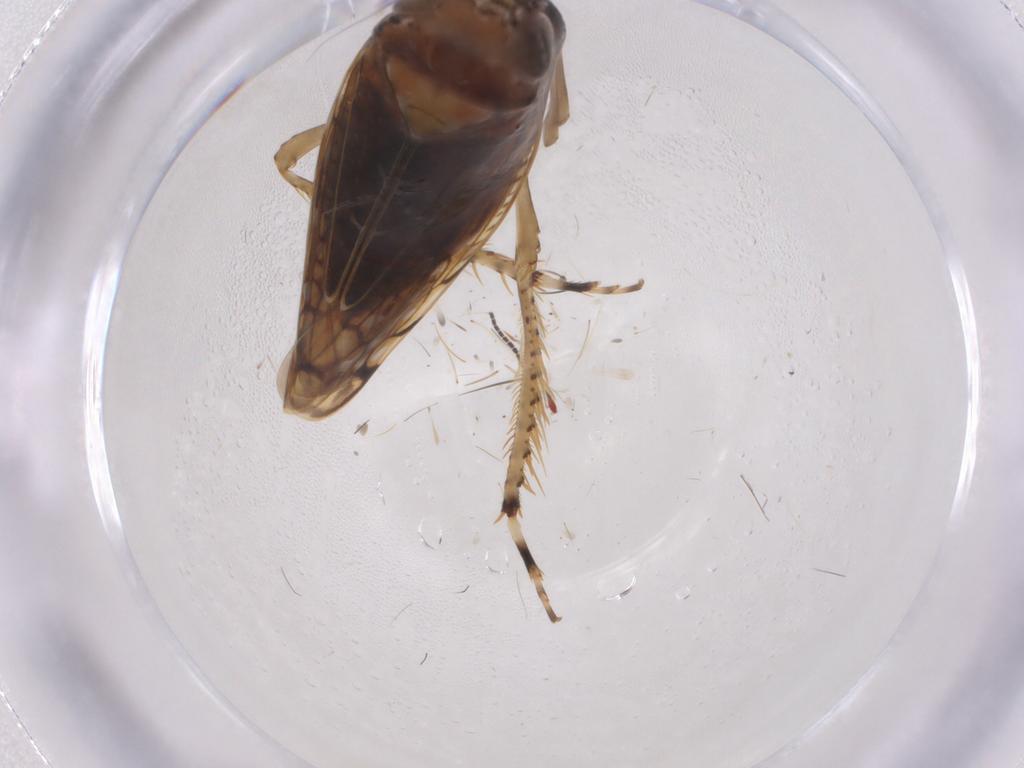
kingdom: Animalia
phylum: Arthropoda
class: Insecta
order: Hemiptera
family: Cicadellidae
